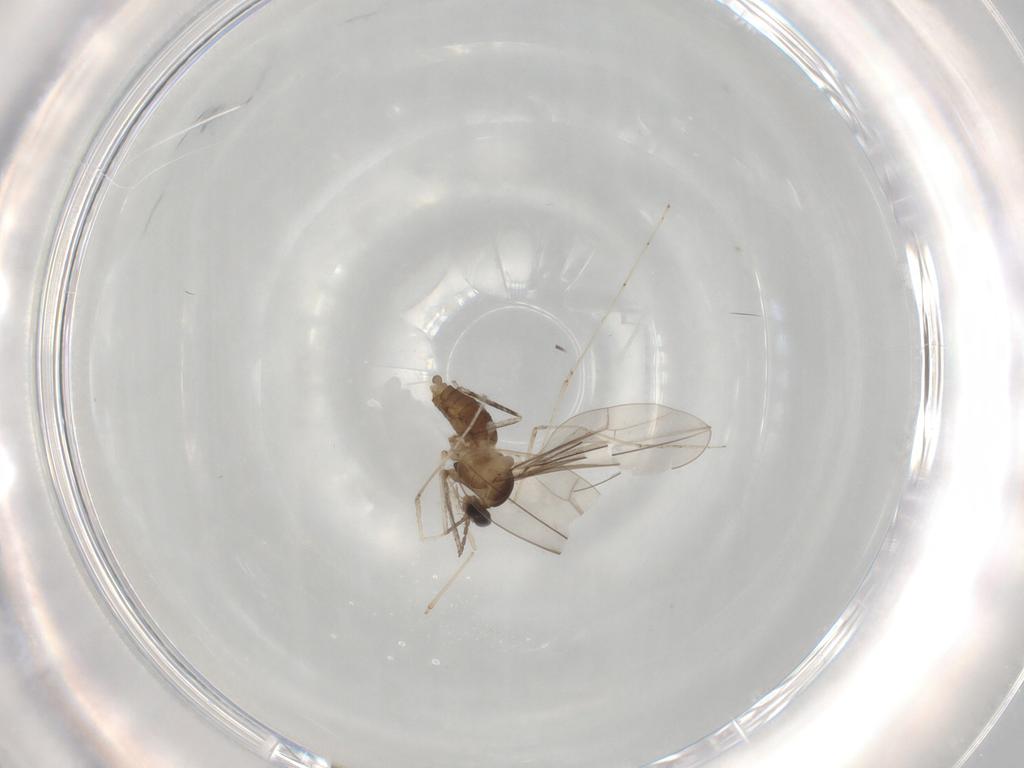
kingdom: Animalia
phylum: Arthropoda
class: Insecta
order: Diptera
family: Cecidomyiidae
